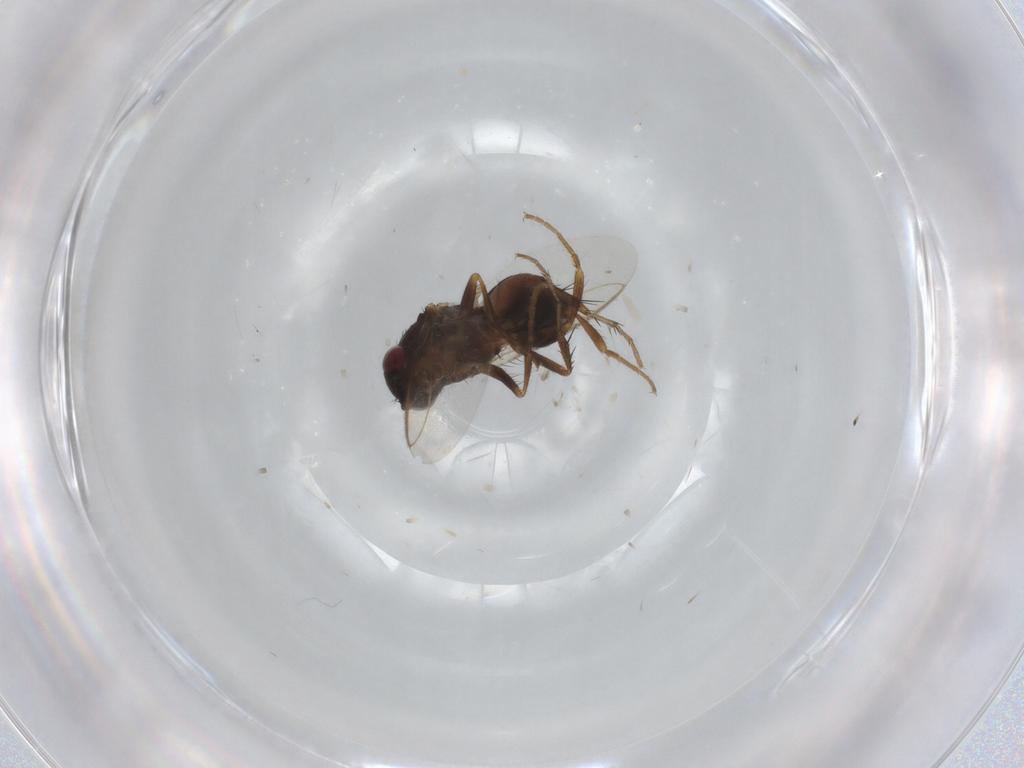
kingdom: Animalia
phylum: Arthropoda
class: Insecta
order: Diptera
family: Sphaeroceridae
